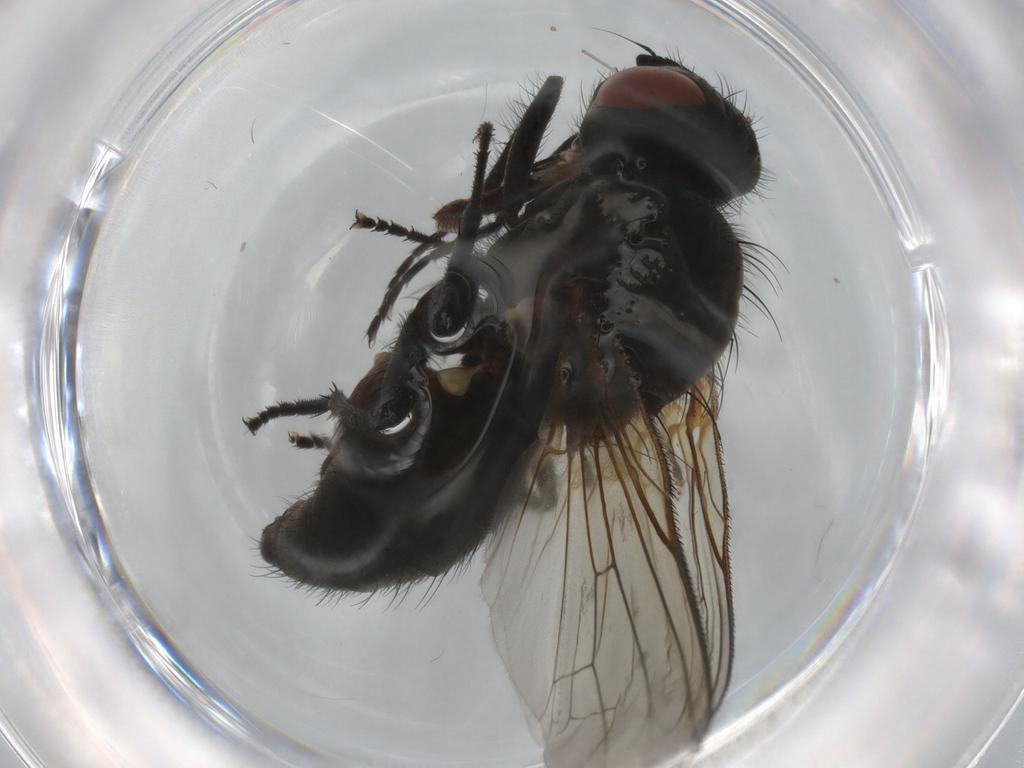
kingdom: Animalia
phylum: Arthropoda
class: Insecta
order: Diptera
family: Anthomyiidae
